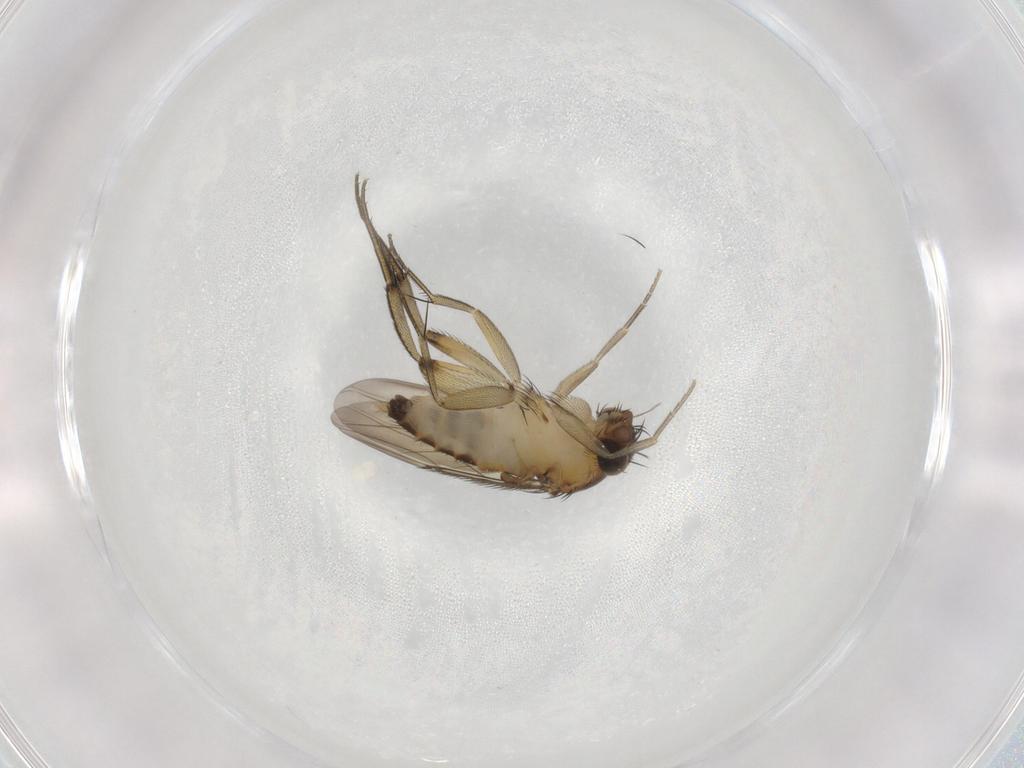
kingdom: Animalia
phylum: Arthropoda
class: Insecta
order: Diptera
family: Phoridae
